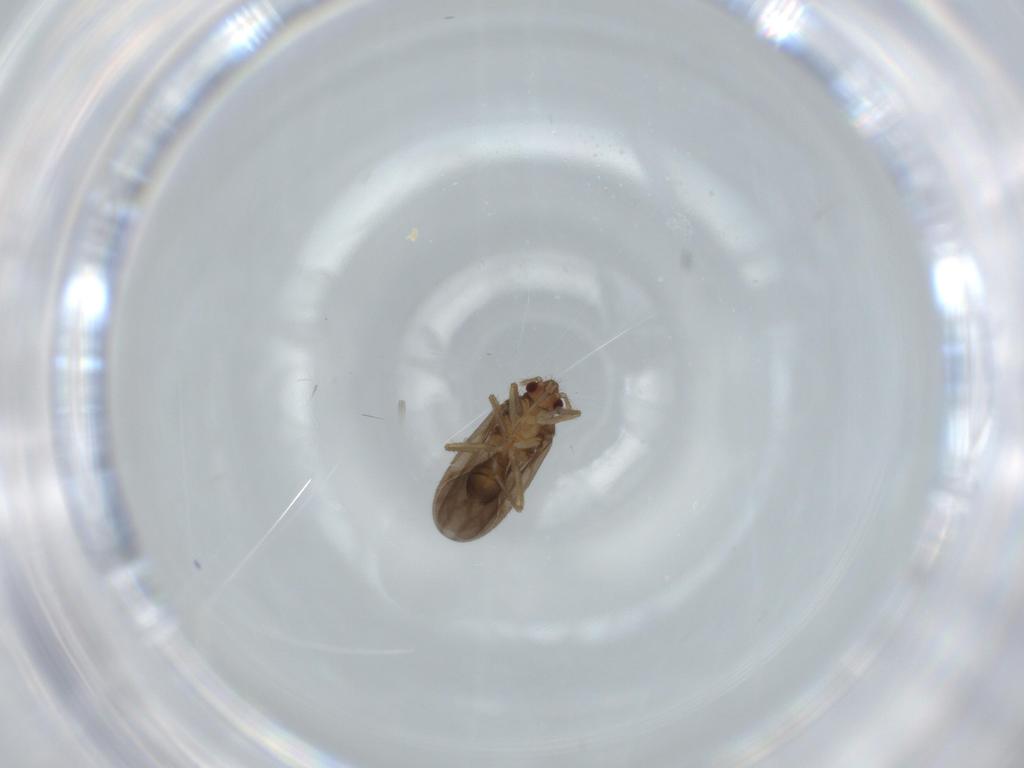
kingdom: Animalia
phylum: Arthropoda
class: Insecta
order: Hemiptera
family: Ceratocombidae
